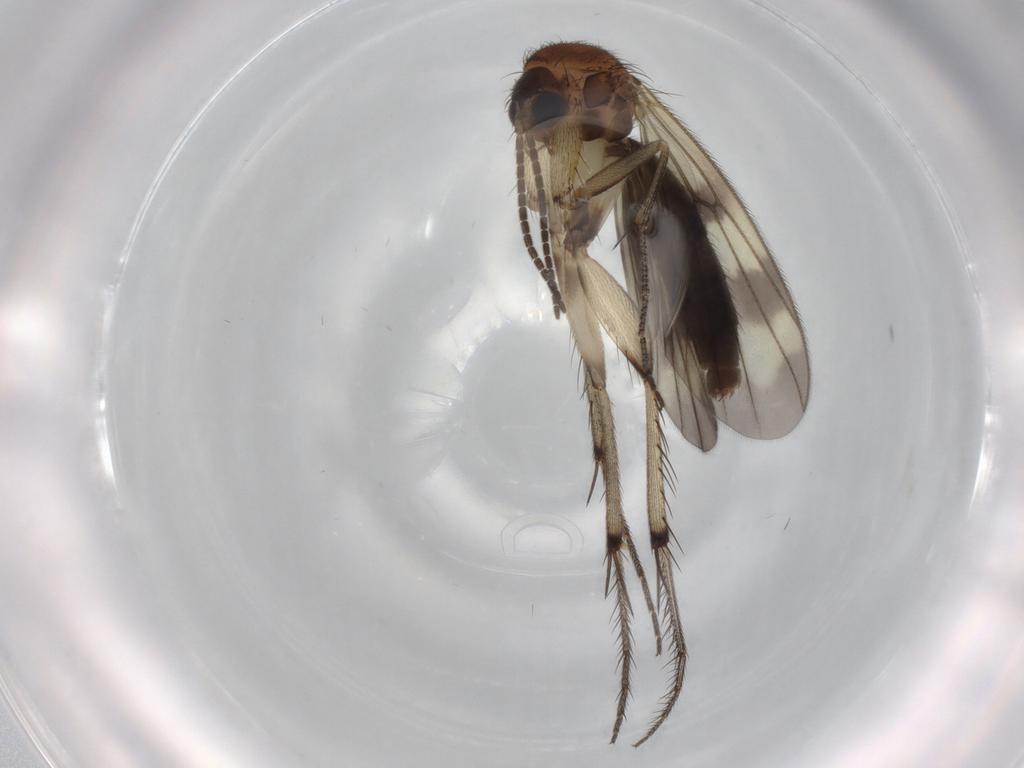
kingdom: Animalia
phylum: Arthropoda
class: Insecta
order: Diptera
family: Mycetophilidae
